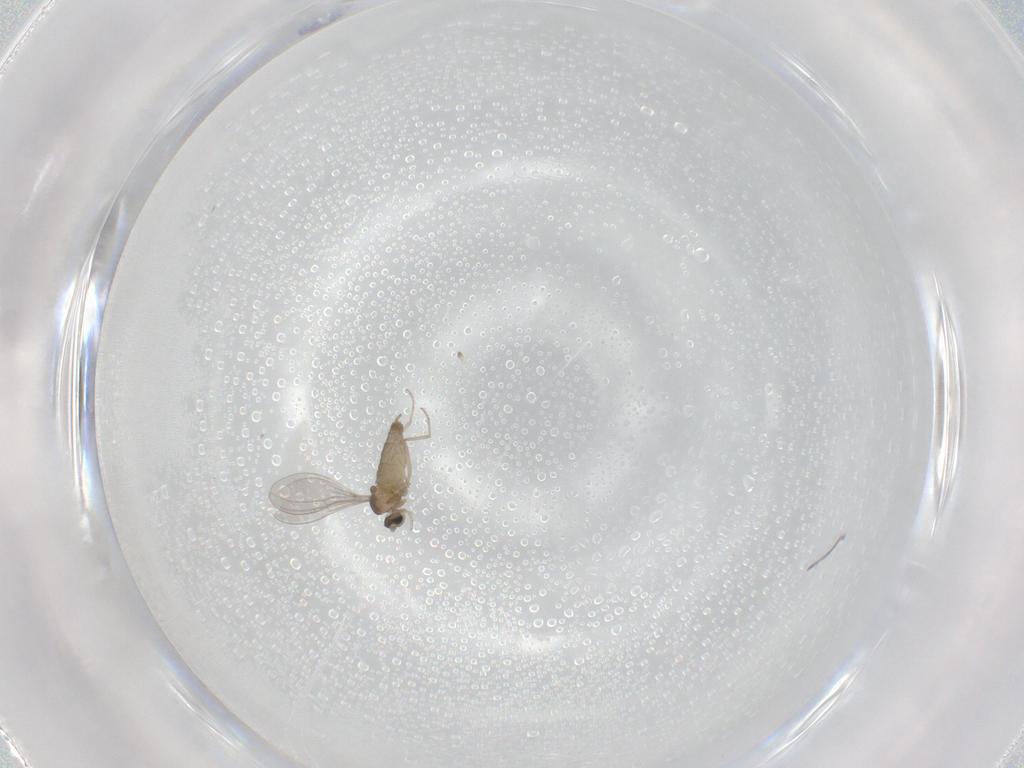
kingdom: Animalia
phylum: Arthropoda
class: Insecta
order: Diptera
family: Cecidomyiidae
